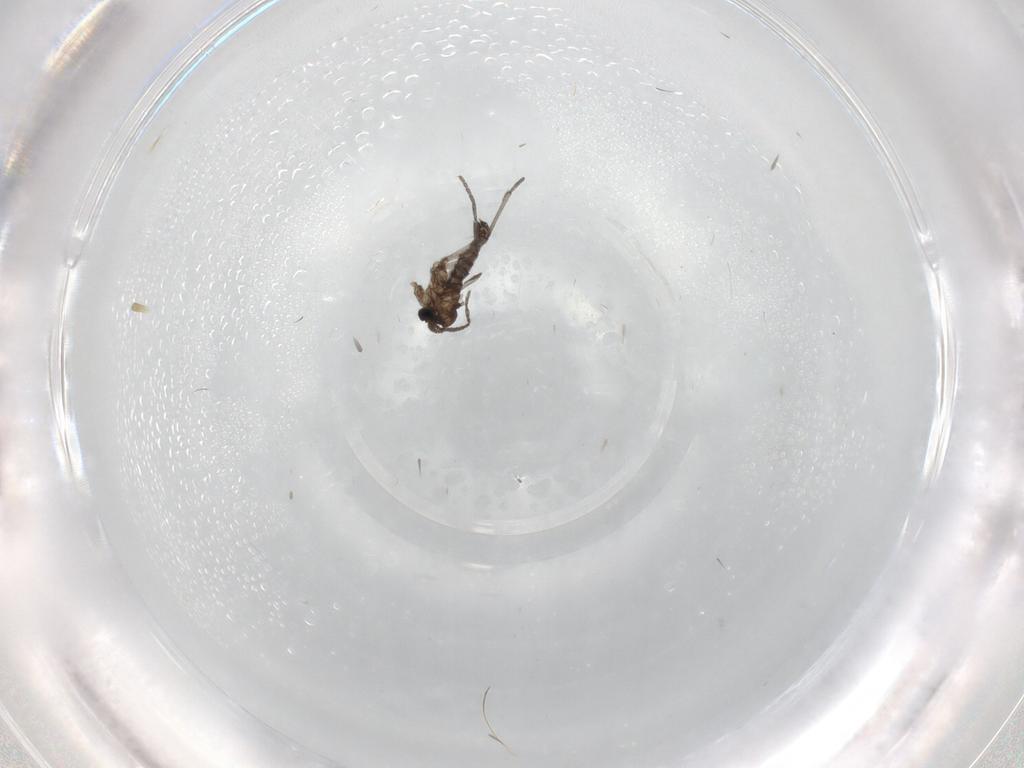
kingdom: Animalia
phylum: Arthropoda
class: Insecta
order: Diptera
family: Sciaridae
